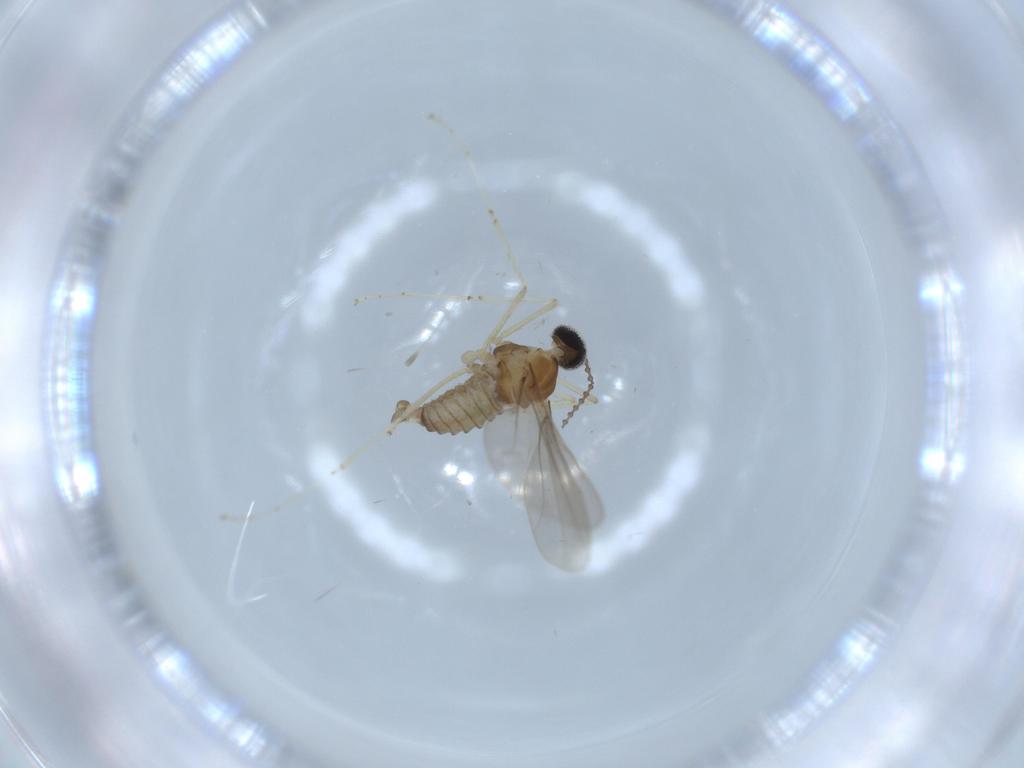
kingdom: Animalia
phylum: Arthropoda
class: Insecta
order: Diptera
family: Cecidomyiidae
